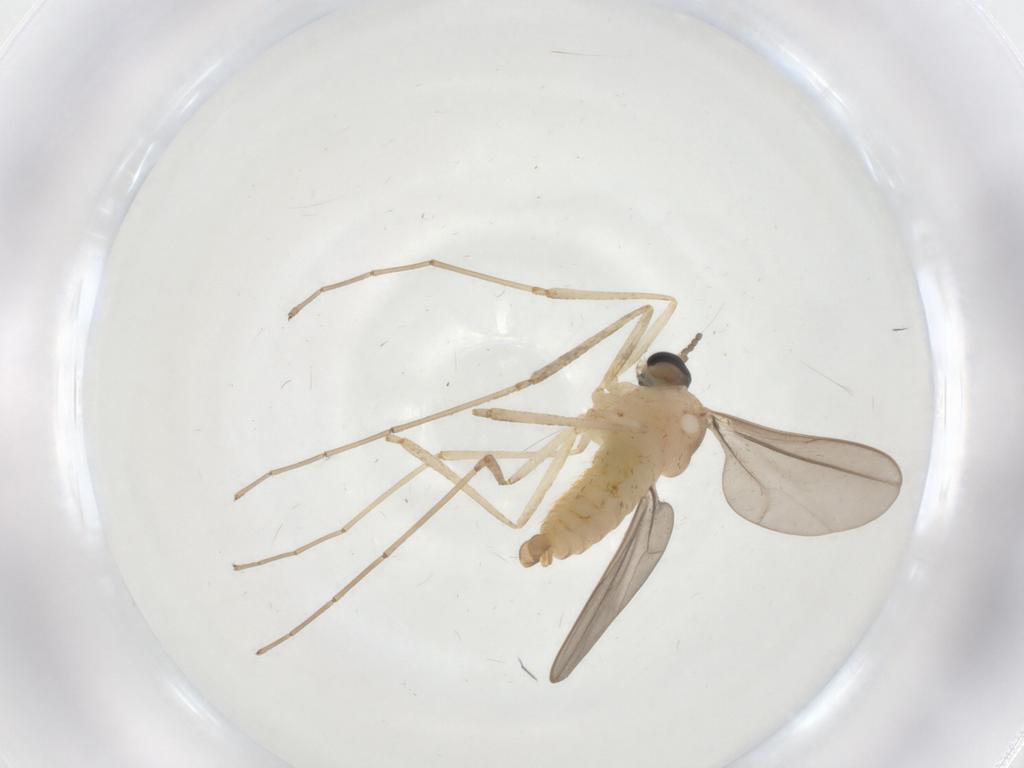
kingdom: Animalia
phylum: Arthropoda
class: Insecta
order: Diptera
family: Cecidomyiidae
